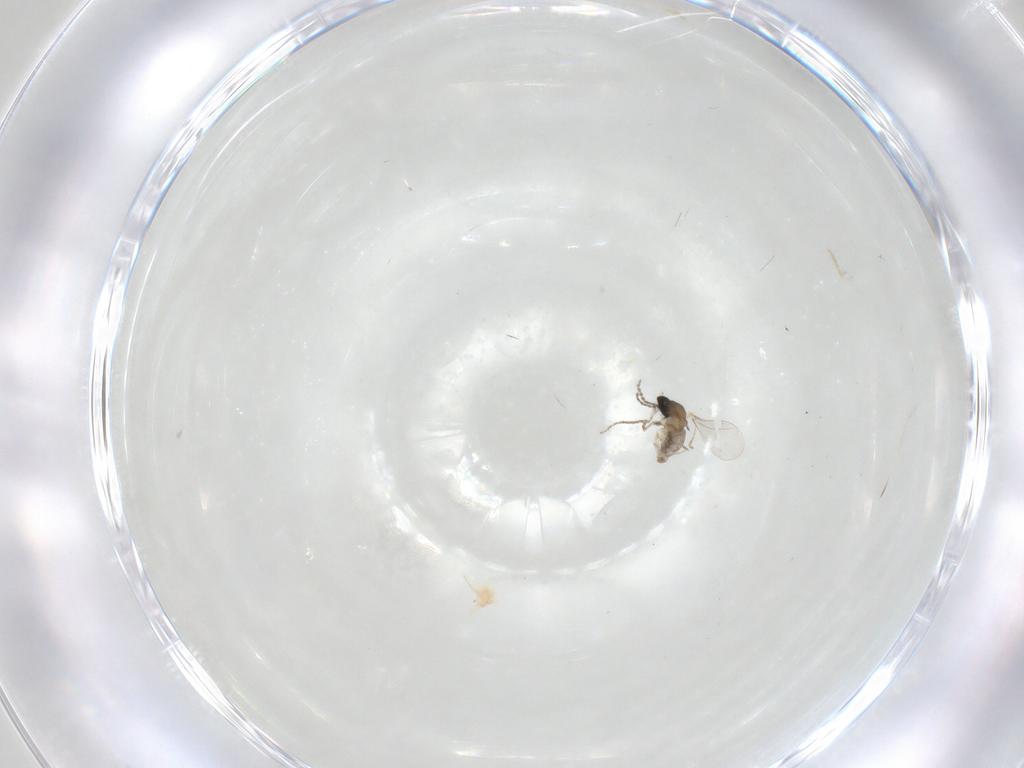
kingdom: Animalia
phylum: Arthropoda
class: Insecta
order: Diptera
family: Cecidomyiidae
